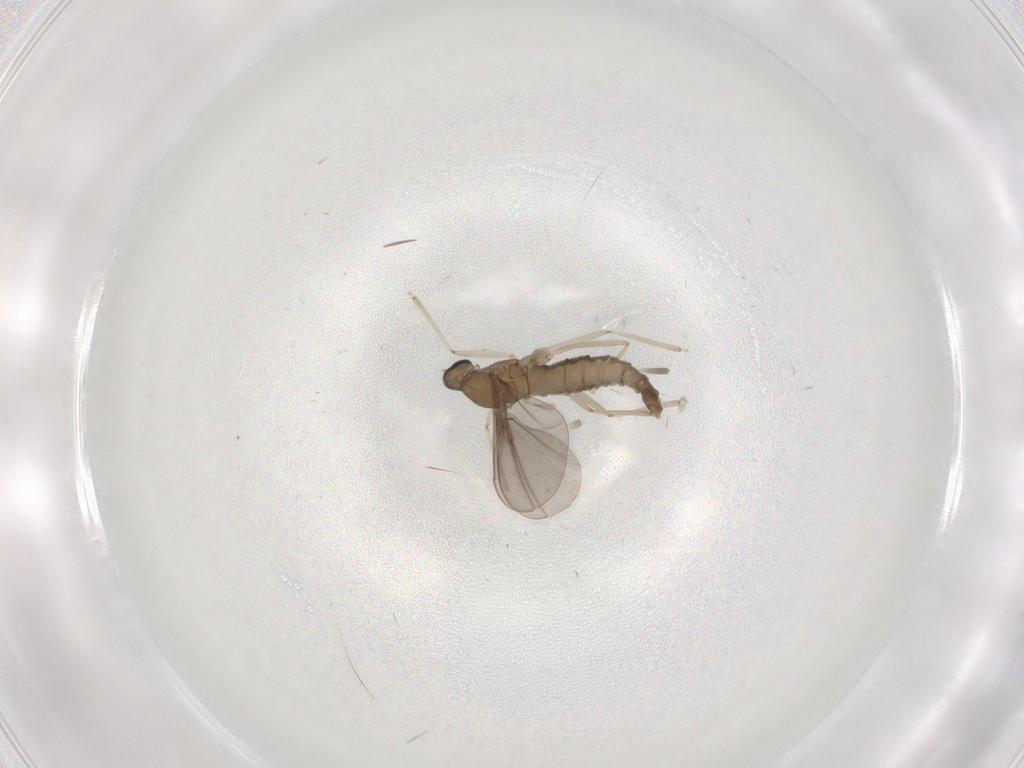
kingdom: Animalia
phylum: Arthropoda
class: Insecta
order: Diptera
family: Cecidomyiidae
